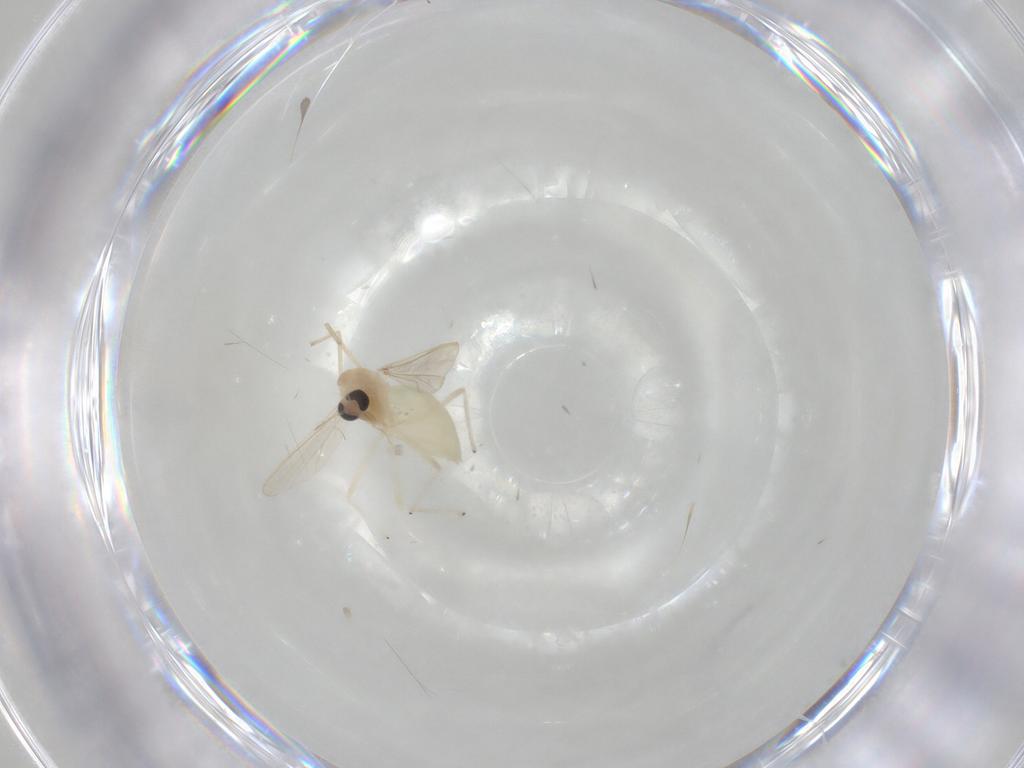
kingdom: Animalia
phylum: Arthropoda
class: Insecta
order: Diptera
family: Chironomidae
